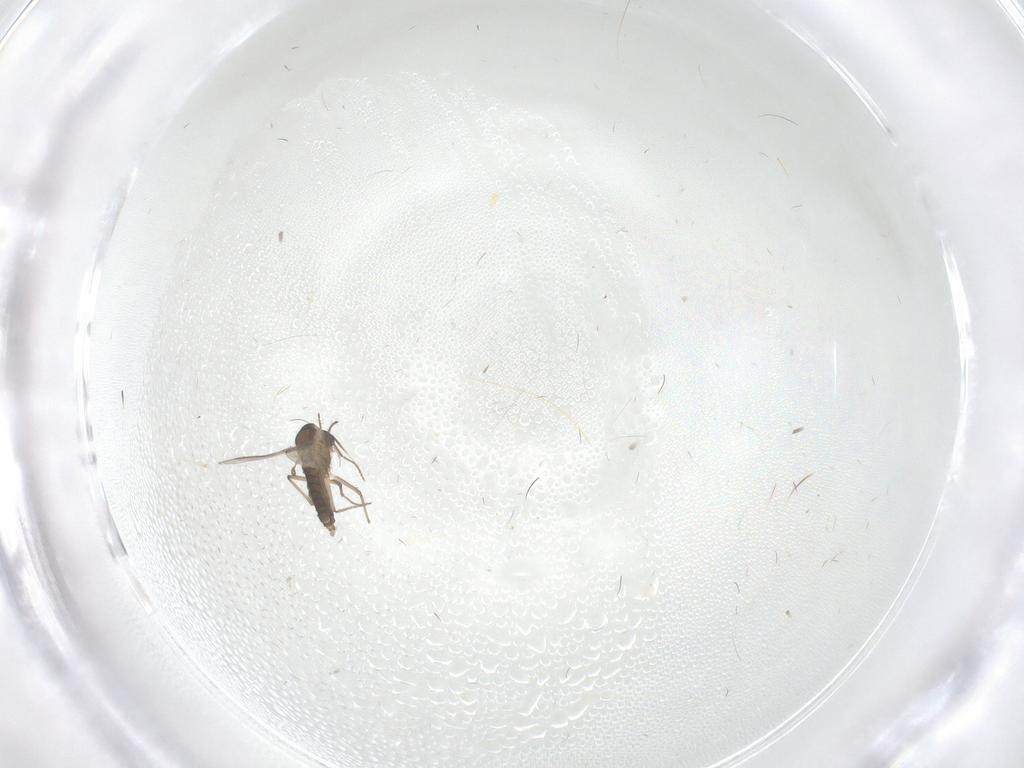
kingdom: Animalia
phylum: Arthropoda
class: Insecta
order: Diptera
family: Chironomidae
